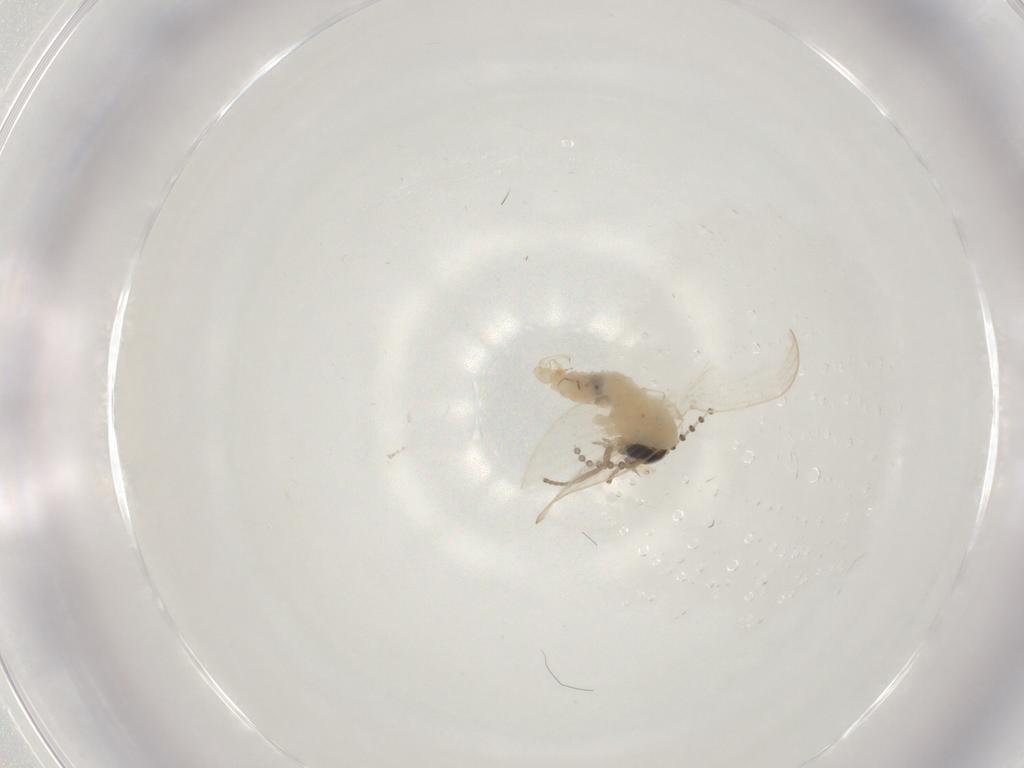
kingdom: Animalia
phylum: Arthropoda
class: Insecta
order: Diptera
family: Psychodidae
